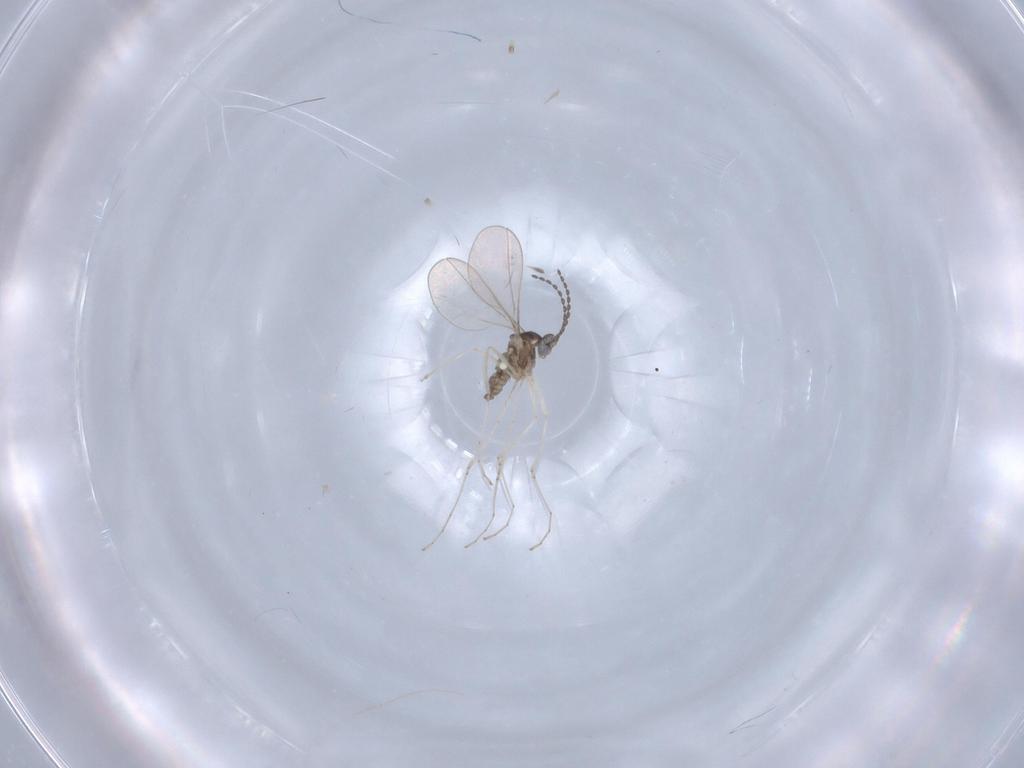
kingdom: Animalia
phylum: Arthropoda
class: Insecta
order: Diptera
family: Cecidomyiidae
